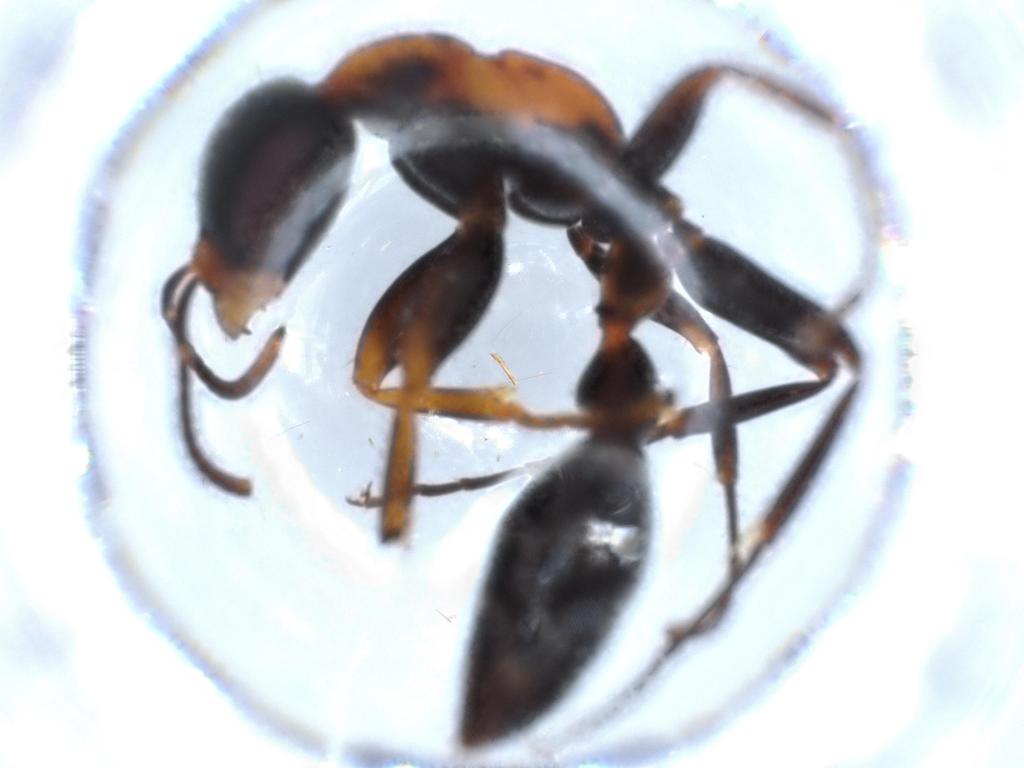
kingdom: Animalia
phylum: Arthropoda
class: Insecta
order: Hymenoptera
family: Formicidae
